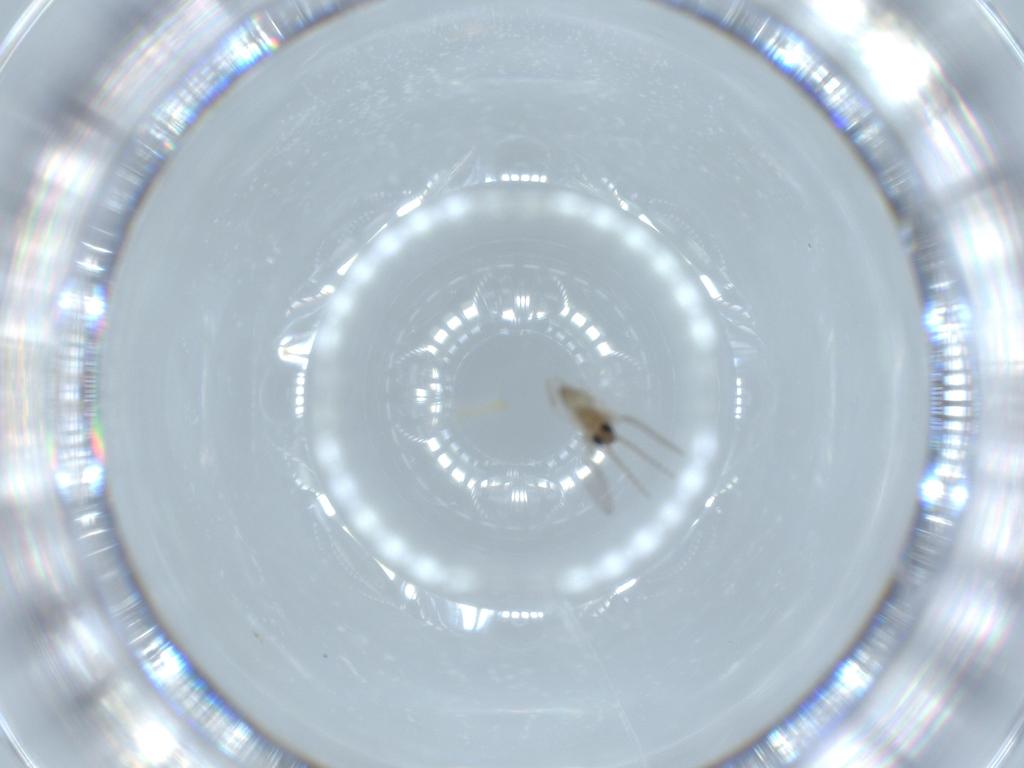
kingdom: Animalia
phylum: Arthropoda
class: Insecta
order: Diptera
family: Cecidomyiidae
